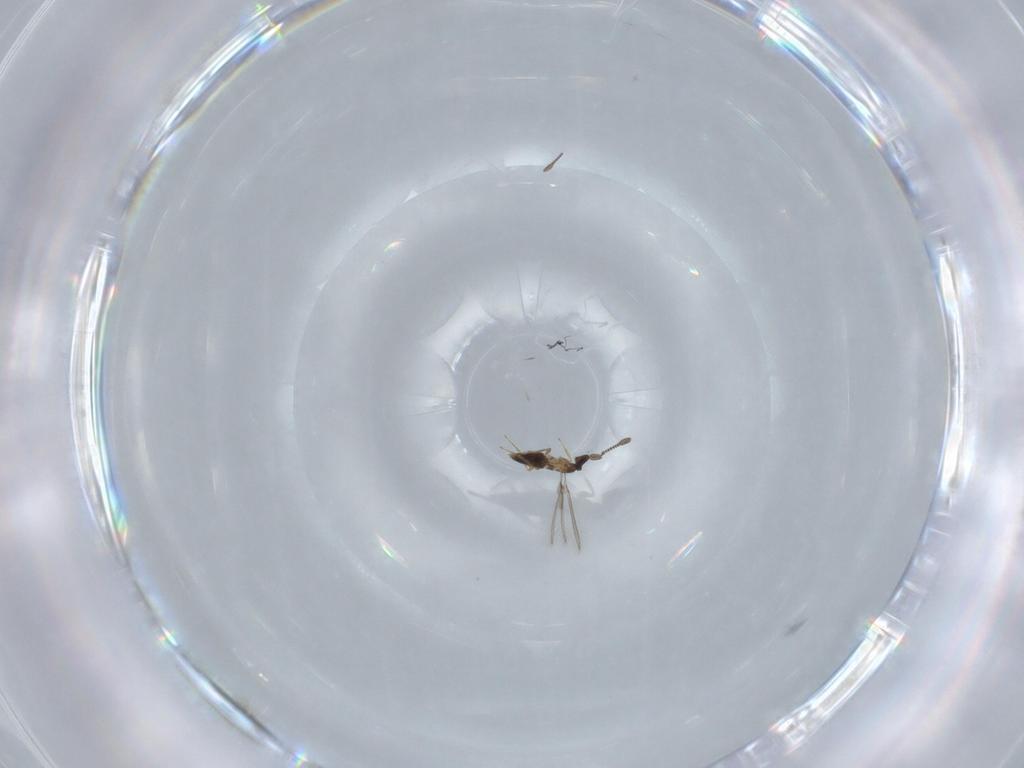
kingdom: Animalia
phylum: Arthropoda
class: Insecta
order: Hymenoptera
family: Mymaridae
